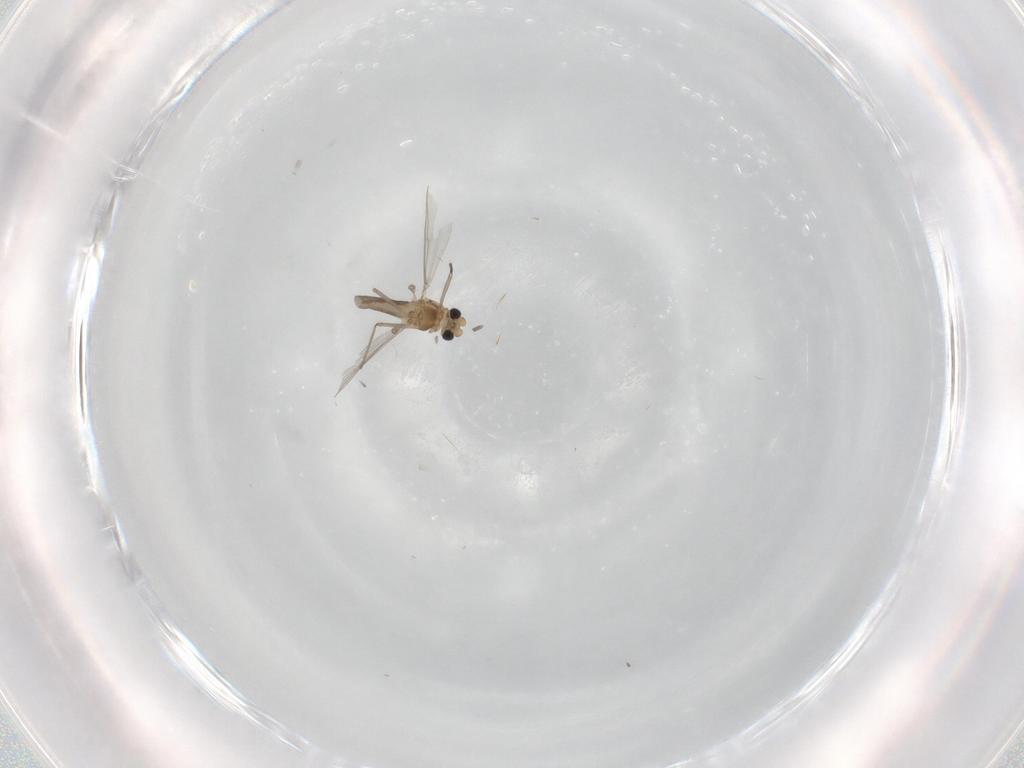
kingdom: Animalia
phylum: Arthropoda
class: Insecta
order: Diptera
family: Chironomidae
